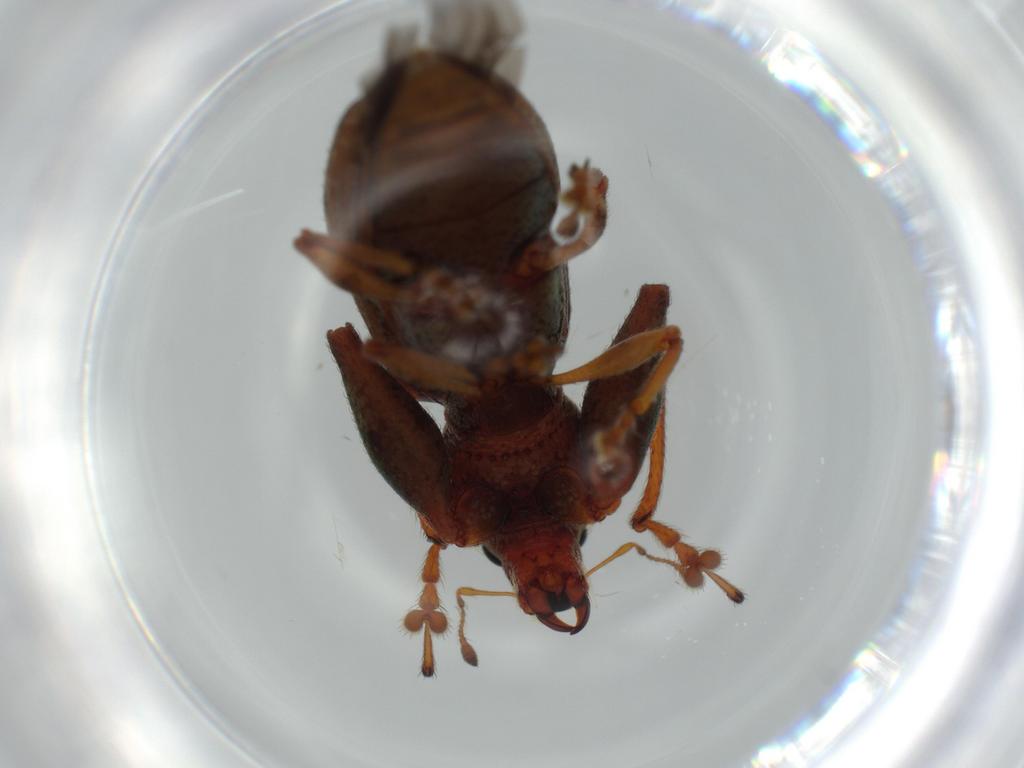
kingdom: Animalia
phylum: Arthropoda
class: Insecta
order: Coleoptera
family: Curculionidae
